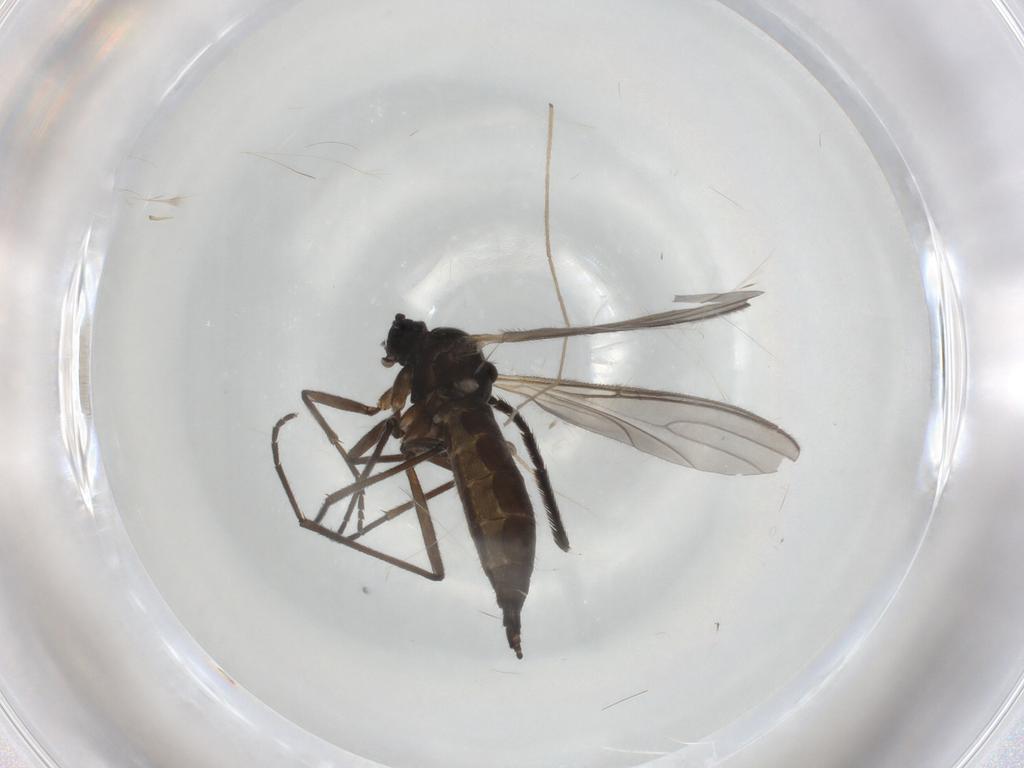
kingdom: Animalia
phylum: Arthropoda
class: Insecta
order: Diptera
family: Sciaridae
